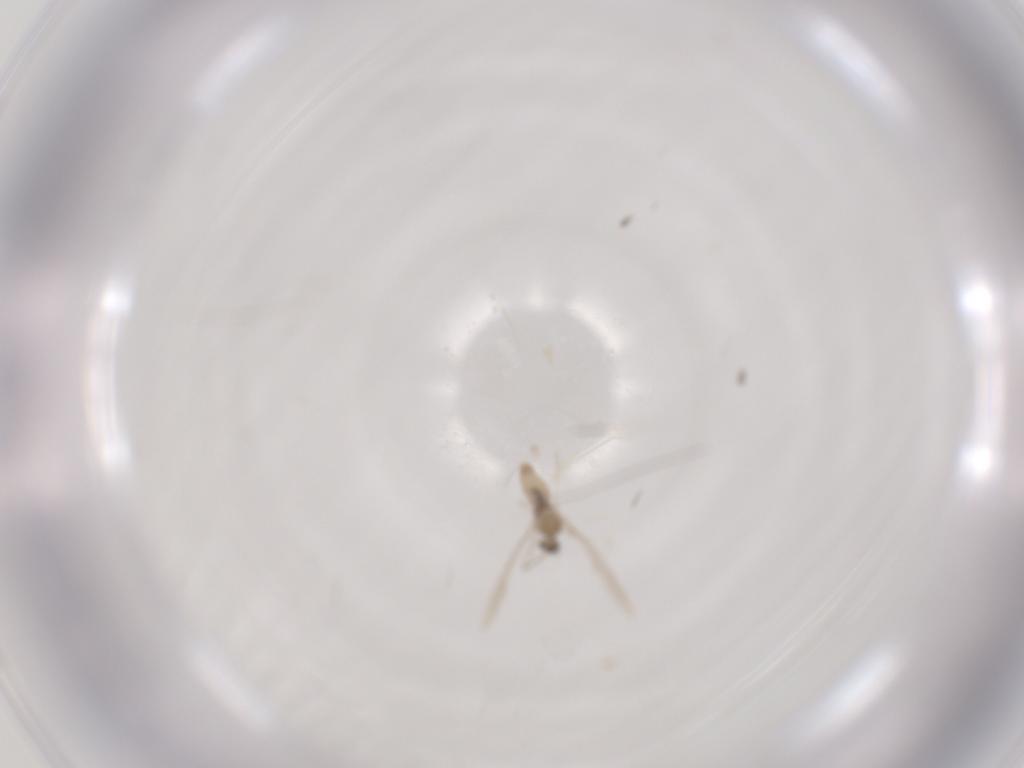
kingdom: Animalia
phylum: Arthropoda
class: Insecta
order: Diptera
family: Cecidomyiidae
